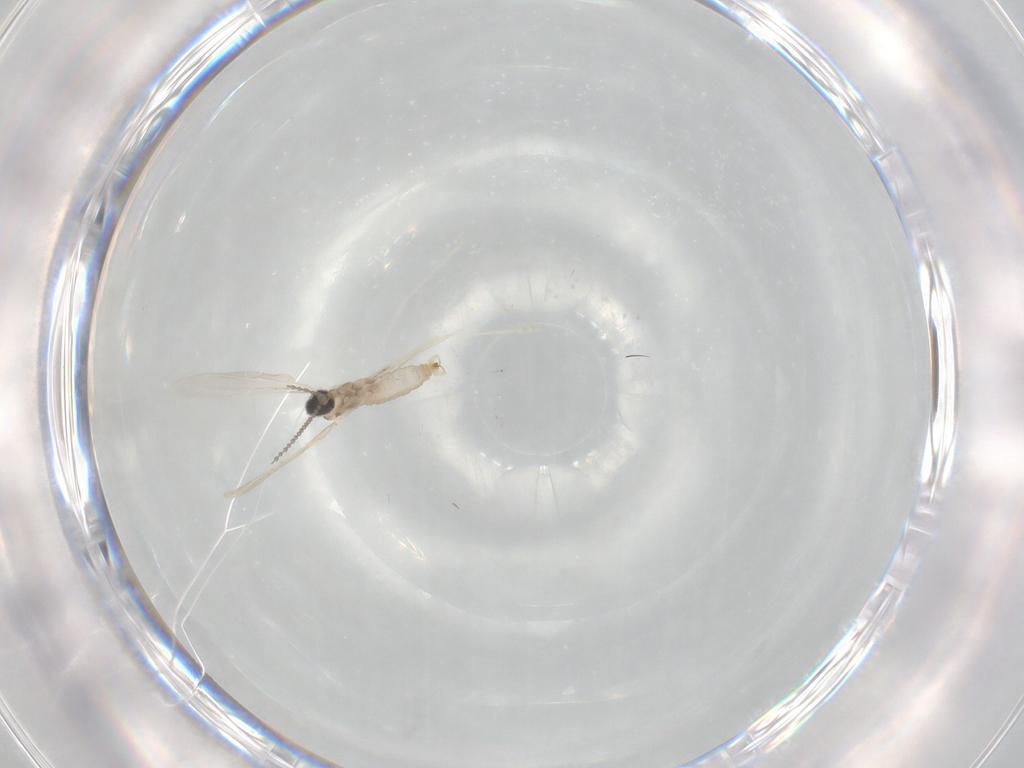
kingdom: Animalia
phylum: Arthropoda
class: Insecta
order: Diptera
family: Cecidomyiidae
